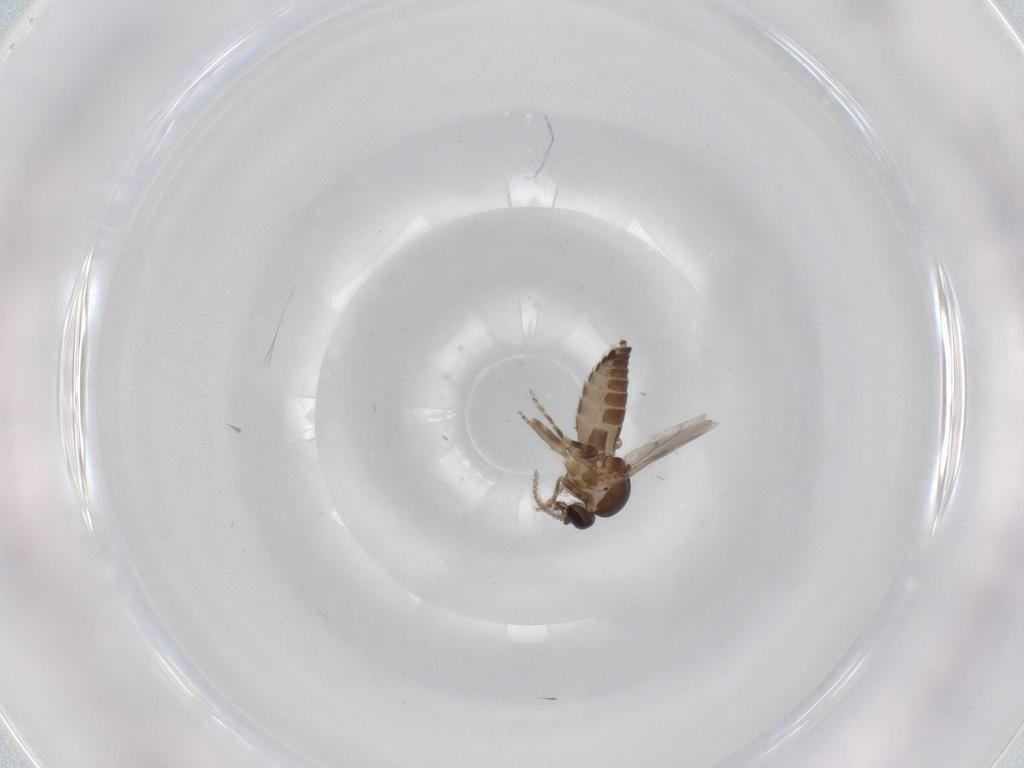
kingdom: Animalia
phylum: Arthropoda
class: Insecta
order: Diptera
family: Ceratopogonidae
